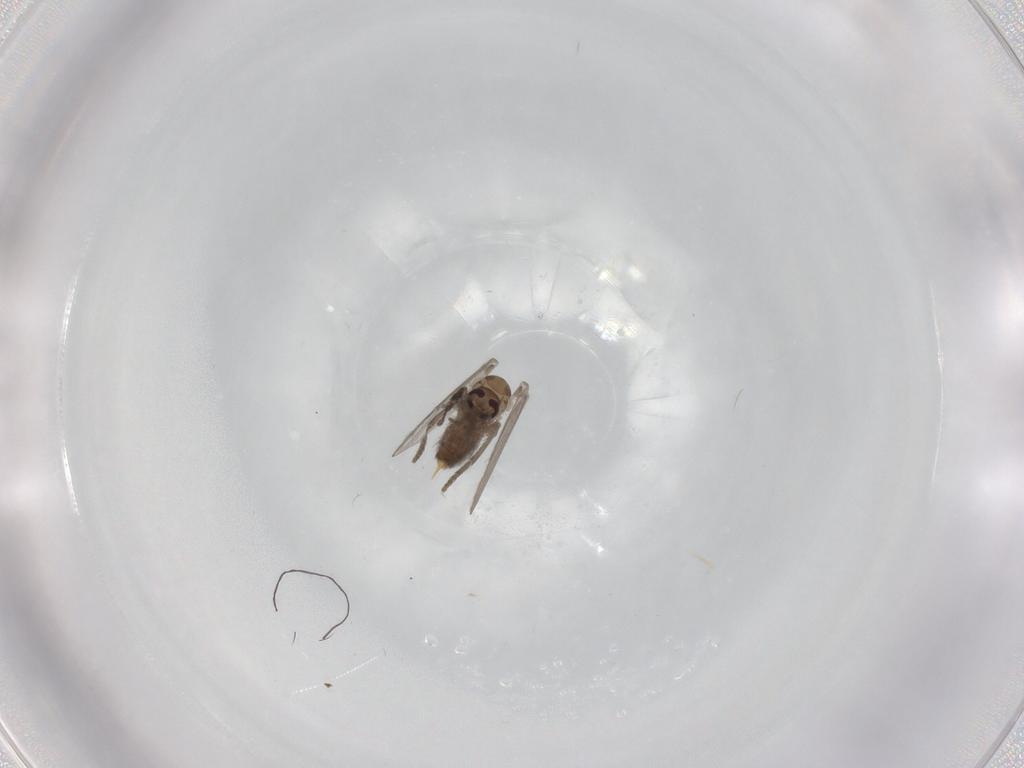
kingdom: Animalia
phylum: Arthropoda
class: Insecta
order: Diptera
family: Psychodidae
